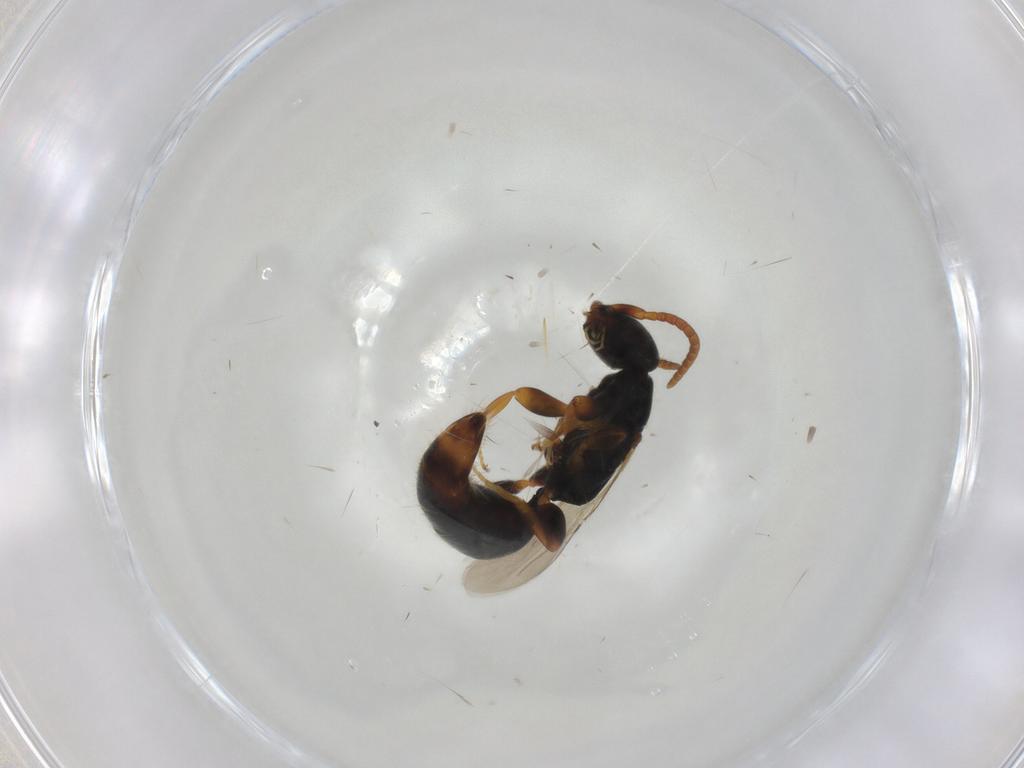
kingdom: Animalia
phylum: Arthropoda
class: Insecta
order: Hymenoptera
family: Bethylidae
